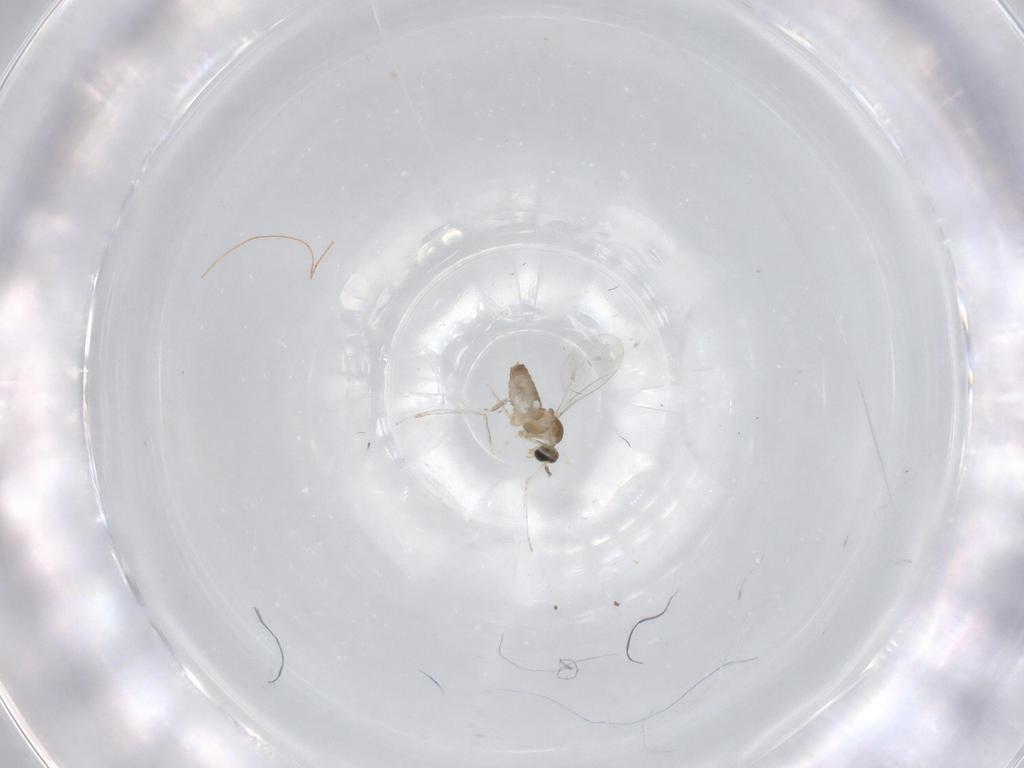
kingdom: Animalia
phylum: Arthropoda
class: Insecta
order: Diptera
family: Cecidomyiidae
